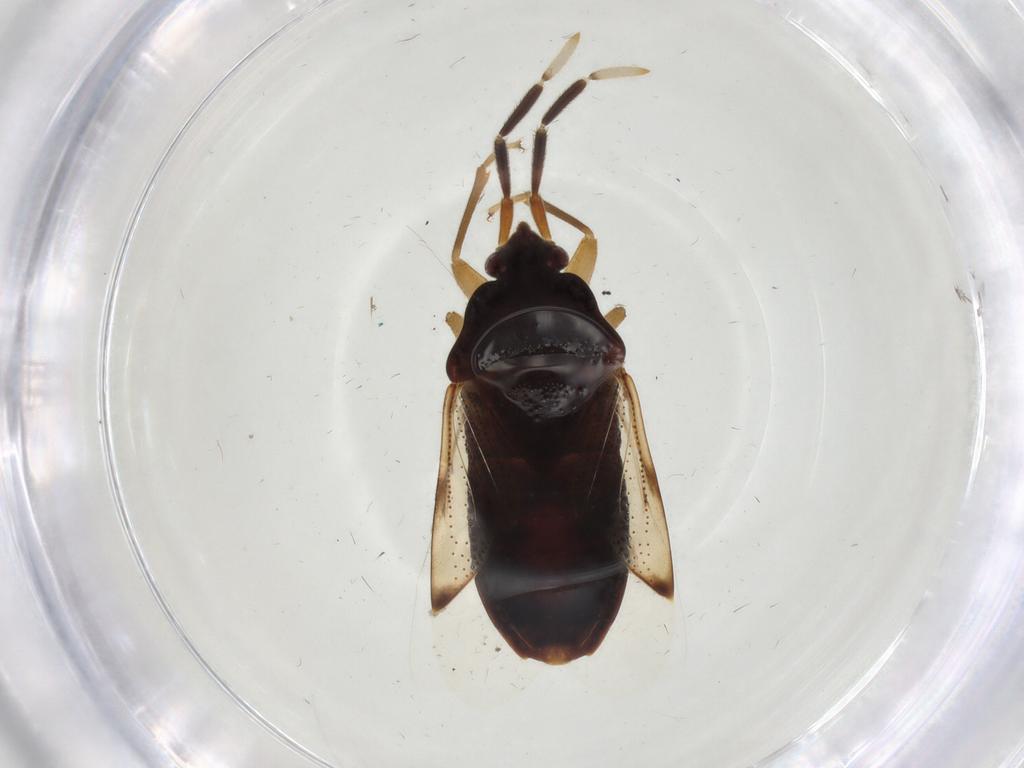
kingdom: Animalia
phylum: Arthropoda
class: Insecta
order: Hemiptera
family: Rhyparochromidae
